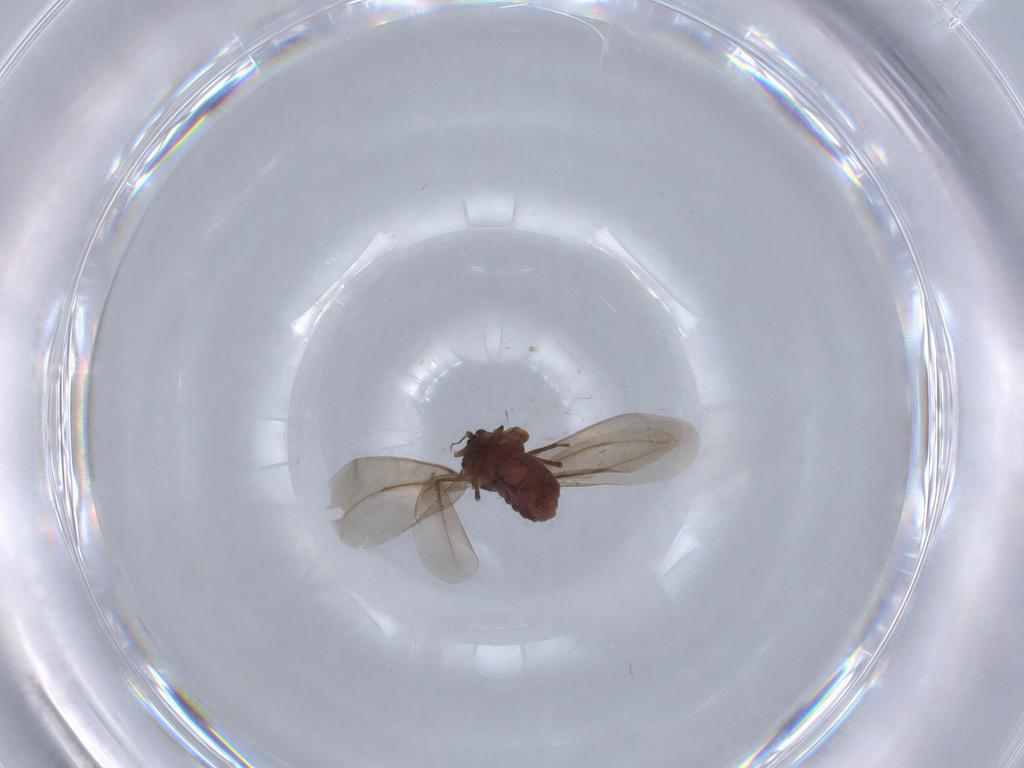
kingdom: Animalia
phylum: Arthropoda
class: Insecta
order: Hemiptera
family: Aleyrodidae
